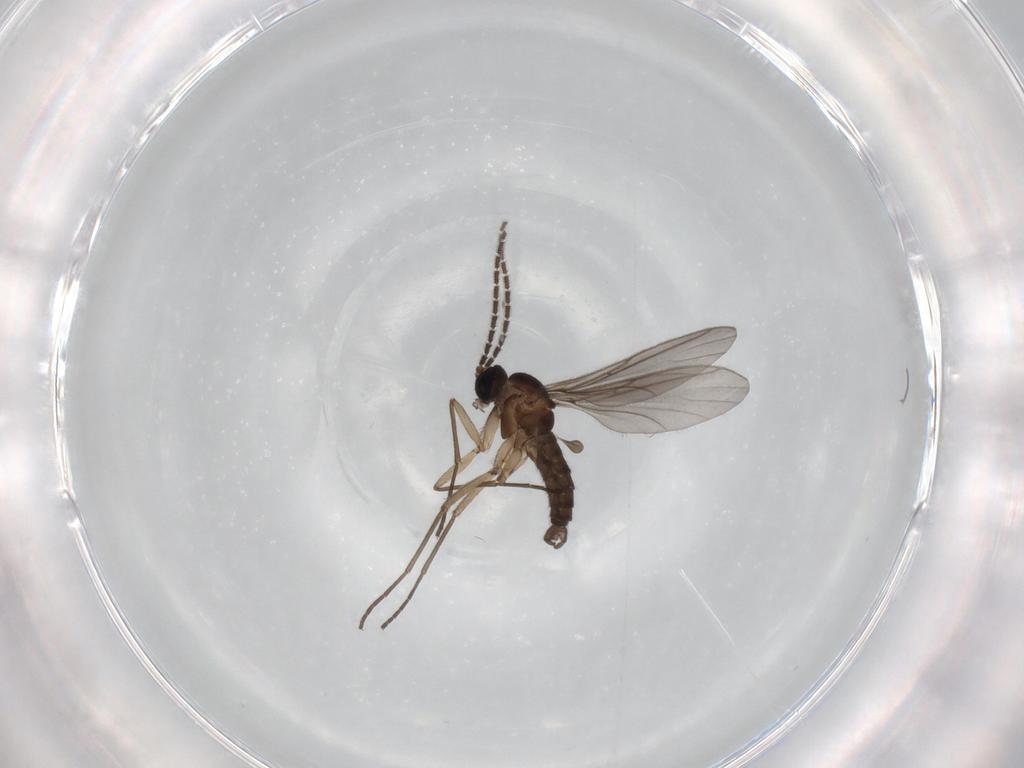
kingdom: Animalia
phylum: Arthropoda
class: Insecta
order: Diptera
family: Sciaridae
